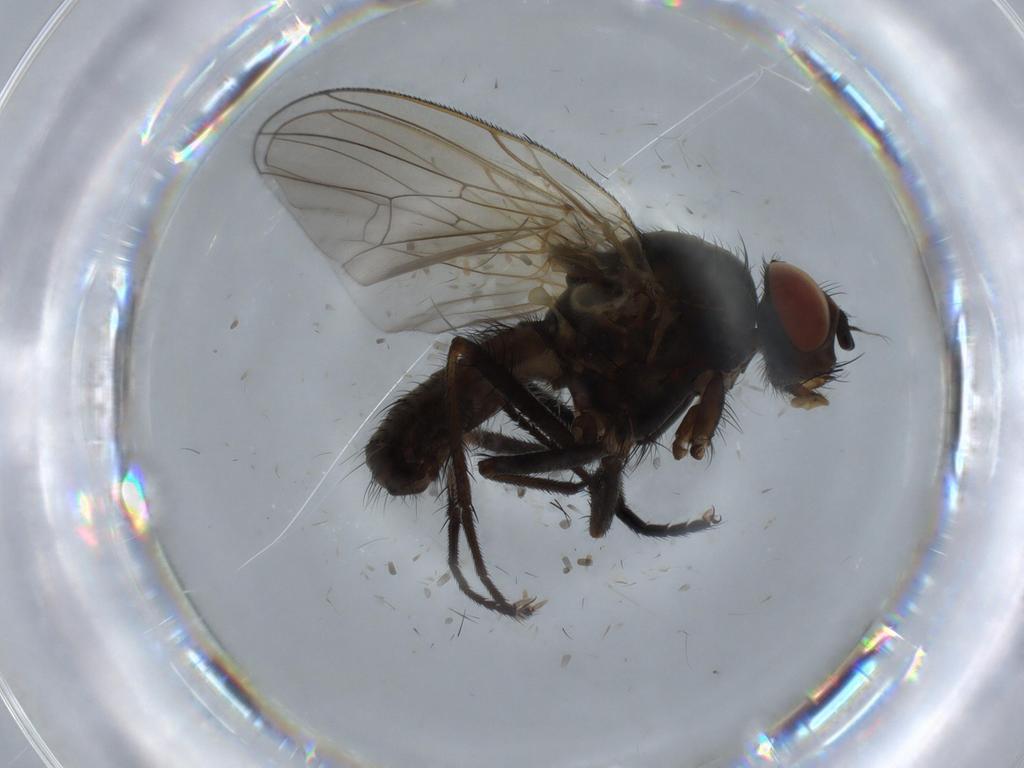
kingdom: Animalia
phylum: Arthropoda
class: Insecta
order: Diptera
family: Anthomyiidae
